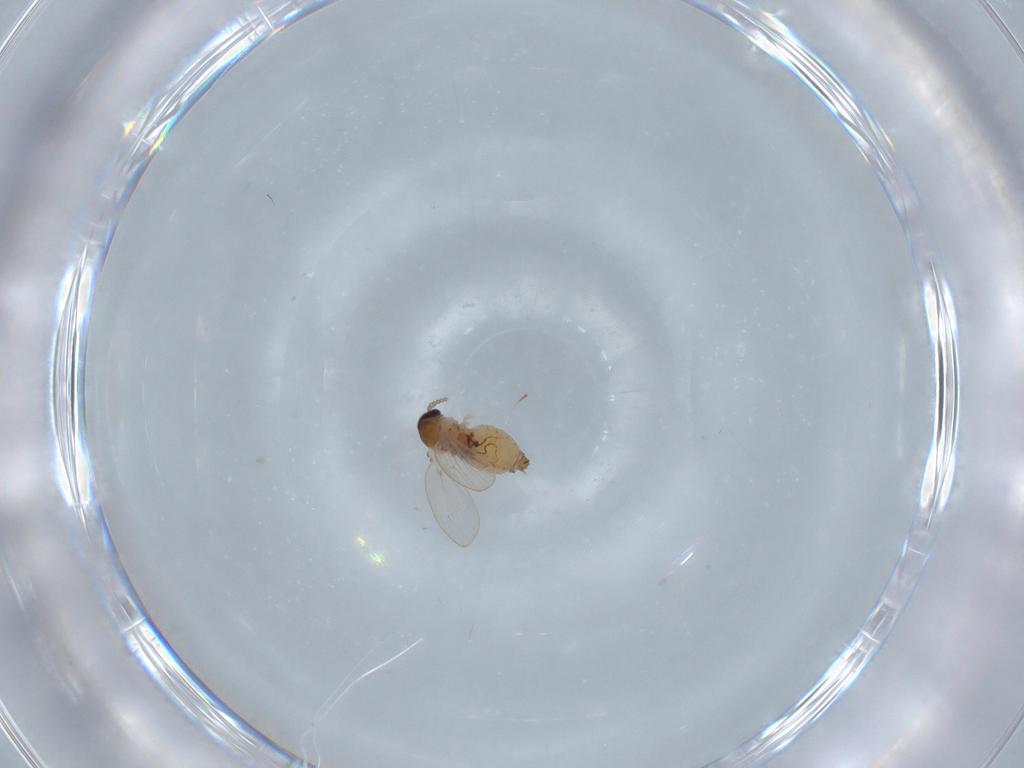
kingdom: Animalia
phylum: Arthropoda
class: Insecta
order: Diptera
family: Psychodidae
